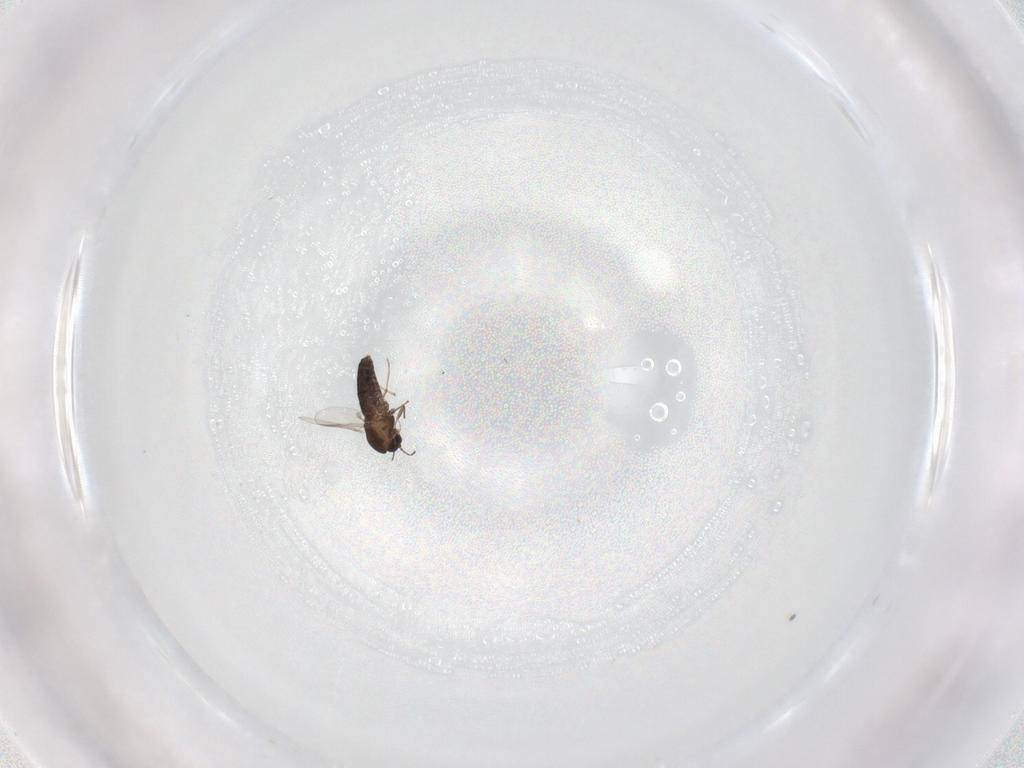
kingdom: Animalia
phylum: Arthropoda
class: Insecta
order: Diptera
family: Chironomidae
